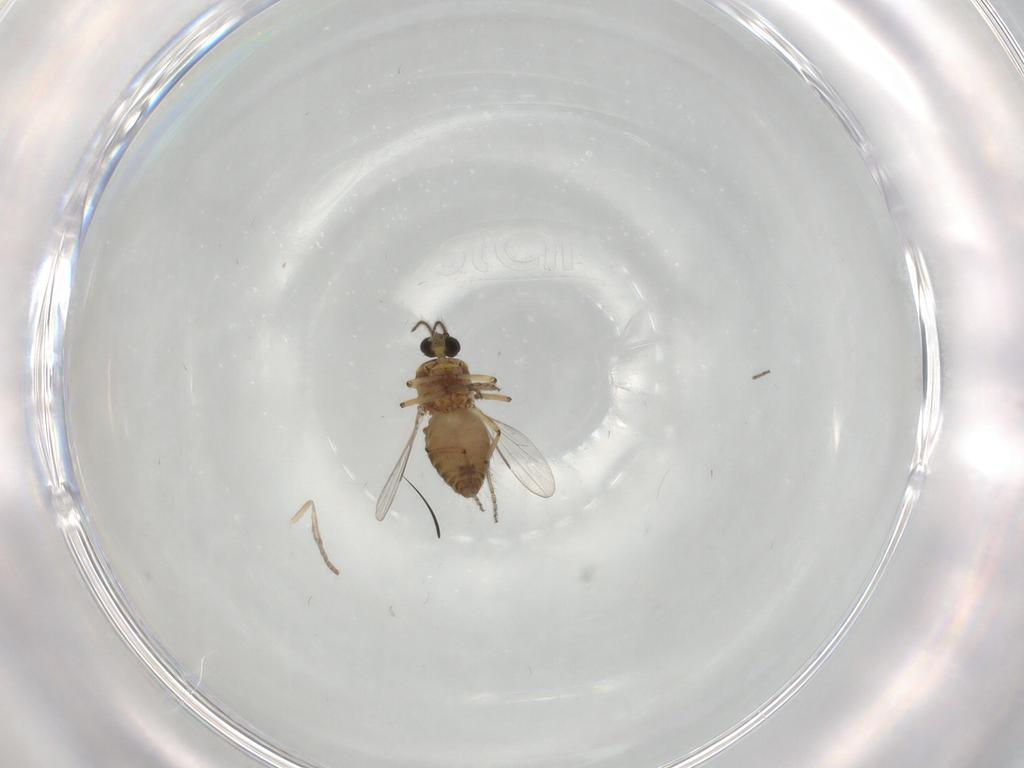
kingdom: Animalia
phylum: Arthropoda
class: Insecta
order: Diptera
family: Ceratopogonidae
